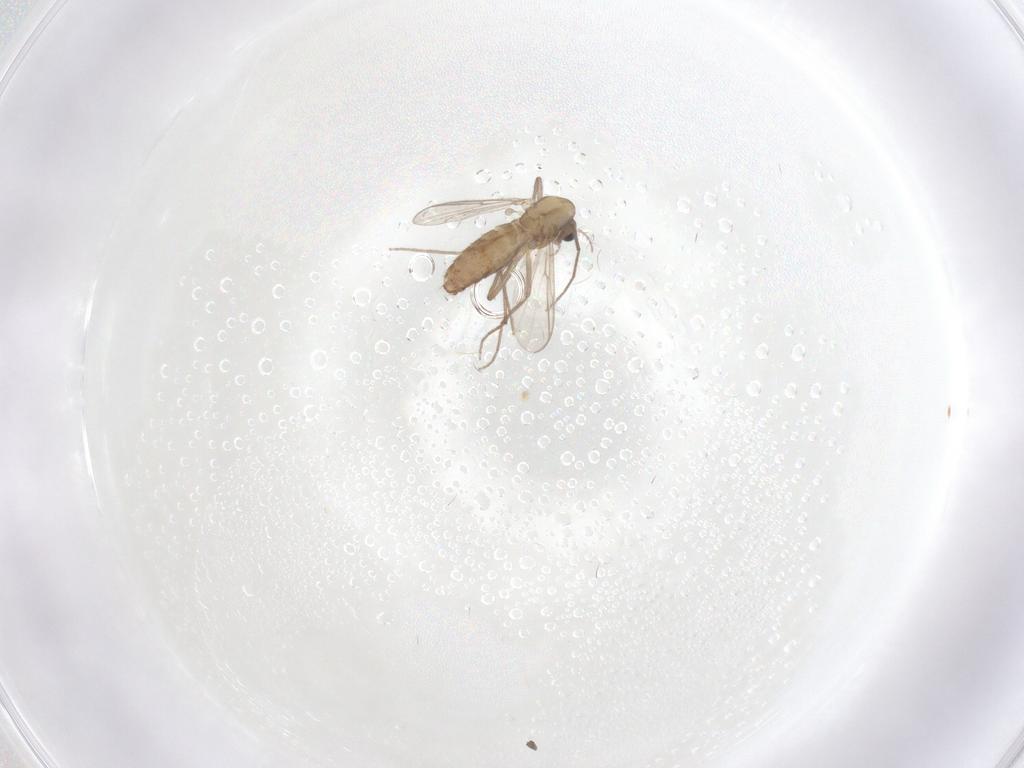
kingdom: Animalia
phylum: Arthropoda
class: Insecta
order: Diptera
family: Chironomidae
